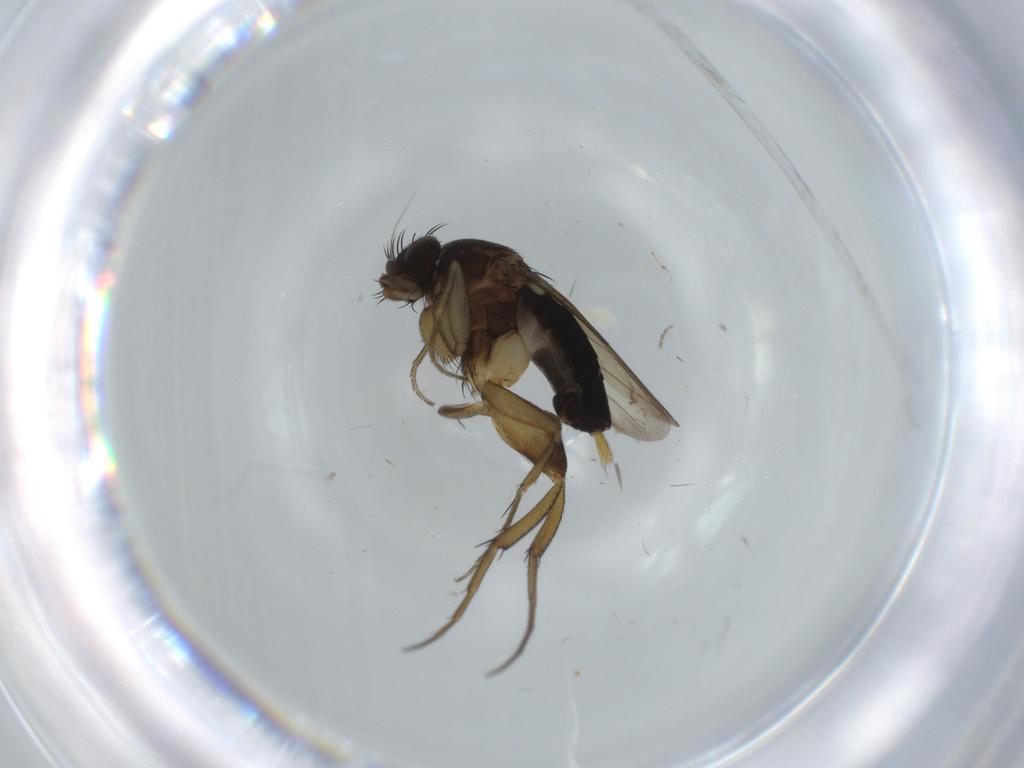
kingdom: Animalia
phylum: Arthropoda
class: Insecta
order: Diptera
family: Phoridae
